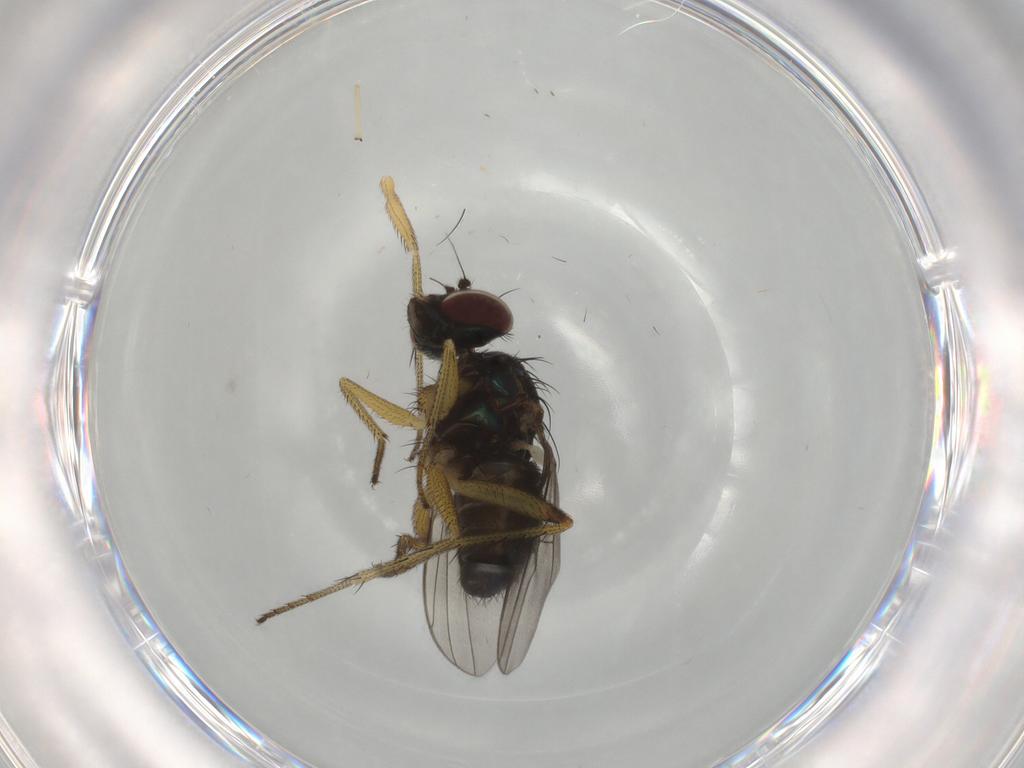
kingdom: Animalia
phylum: Arthropoda
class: Insecta
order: Diptera
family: Dolichopodidae
